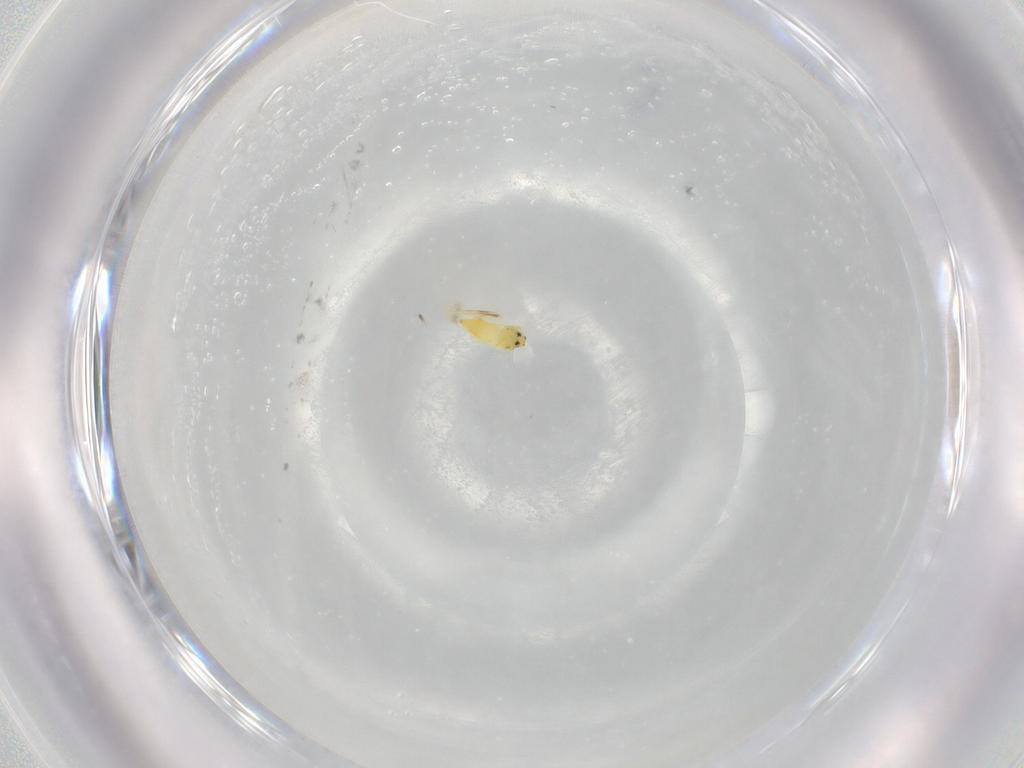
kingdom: Animalia
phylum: Arthropoda
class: Insecta
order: Hemiptera
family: Aleyrodidae
